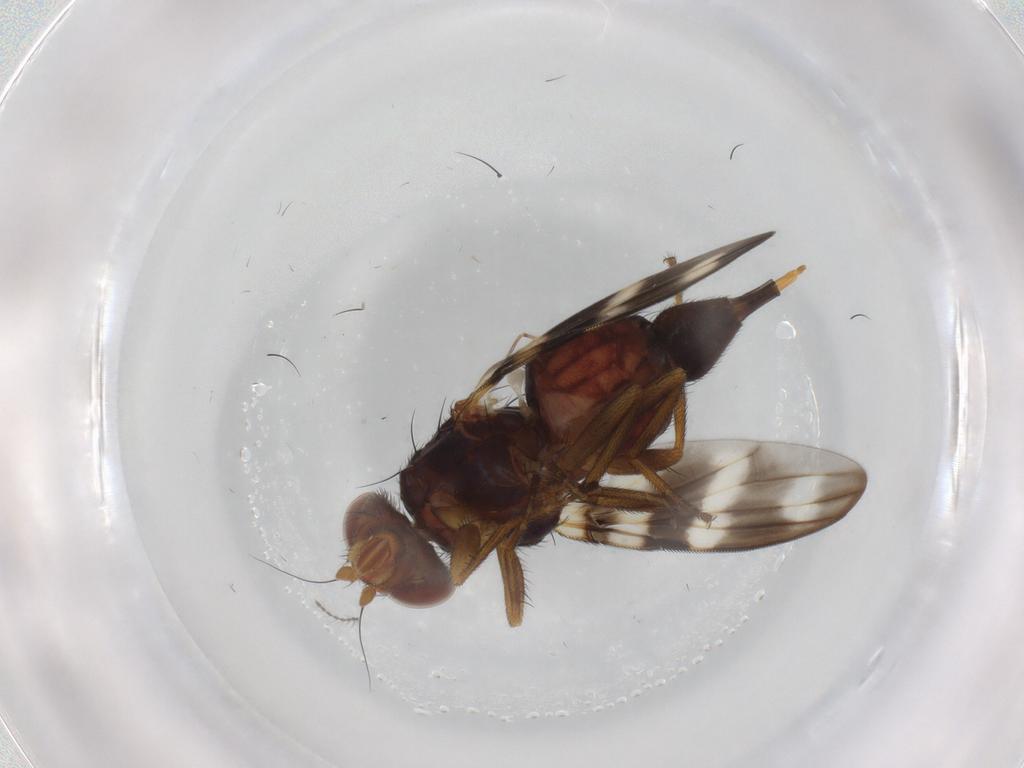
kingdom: Animalia
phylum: Arthropoda
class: Insecta
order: Diptera
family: Ulidiidae
